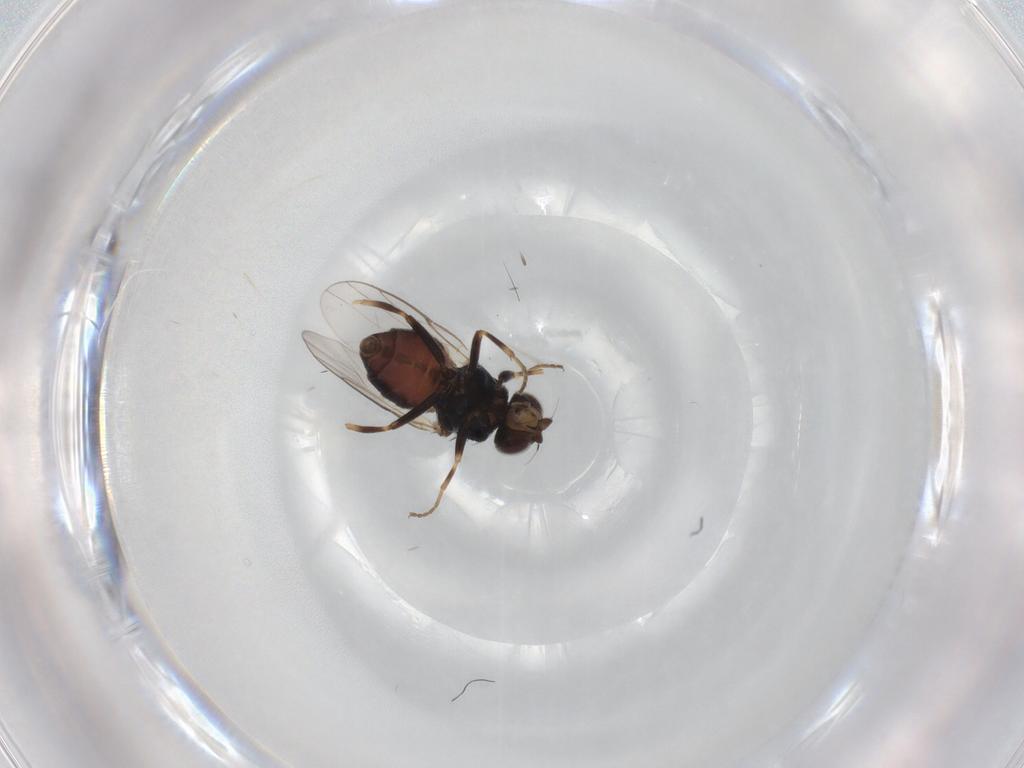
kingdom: Animalia
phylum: Arthropoda
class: Insecta
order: Diptera
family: Chloropidae
